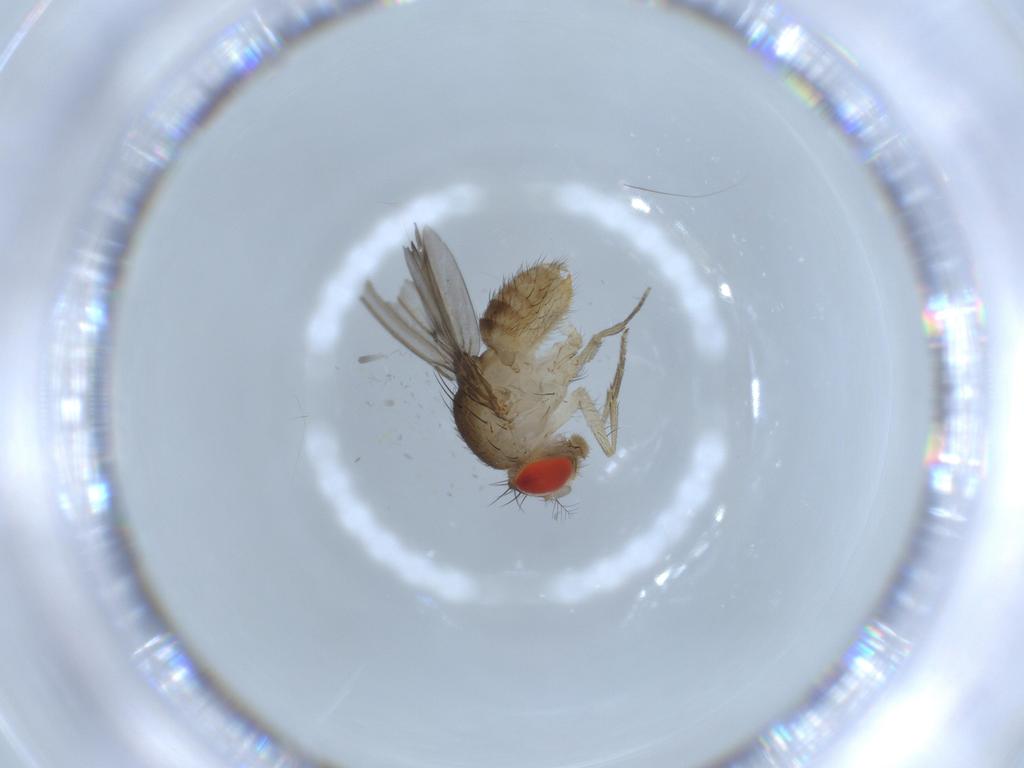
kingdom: Animalia
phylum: Arthropoda
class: Insecta
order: Diptera
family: Drosophilidae
